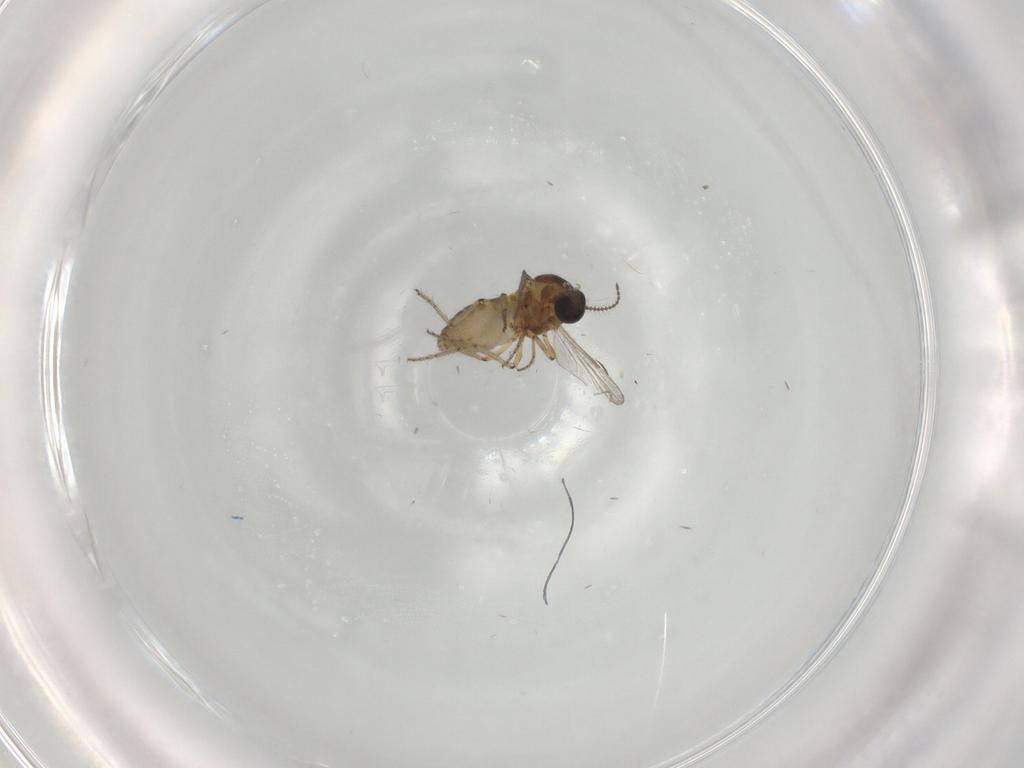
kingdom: Animalia
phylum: Arthropoda
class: Insecta
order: Diptera
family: Ceratopogonidae
